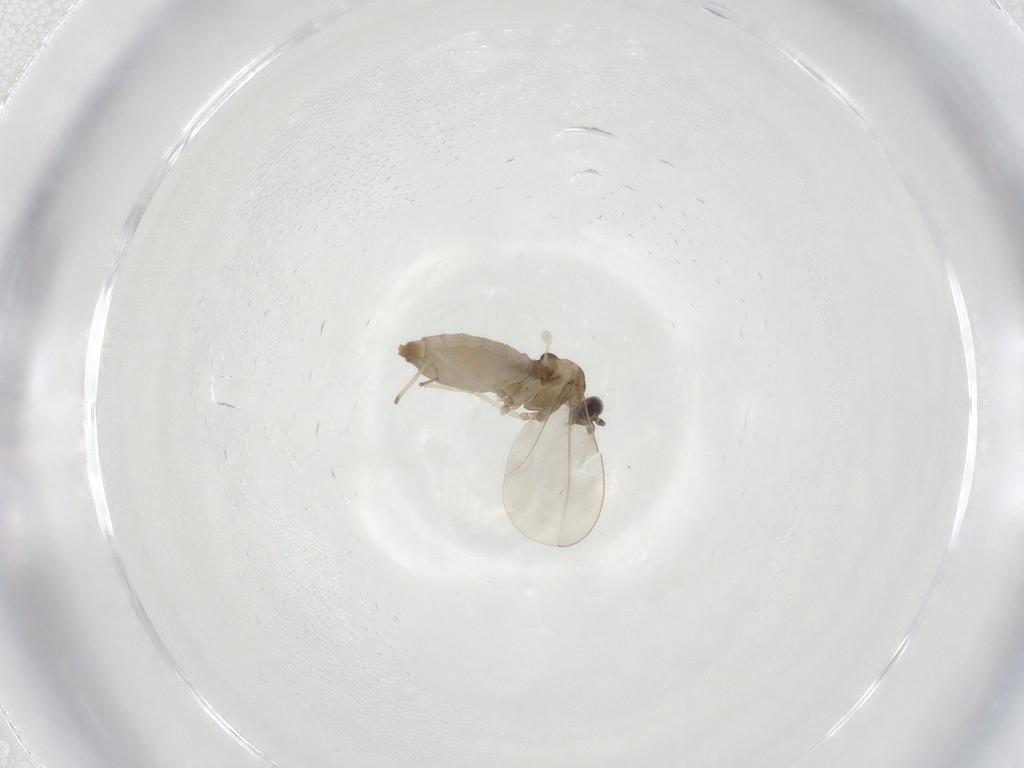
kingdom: Animalia
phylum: Arthropoda
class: Insecta
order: Diptera
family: Cecidomyiidae
